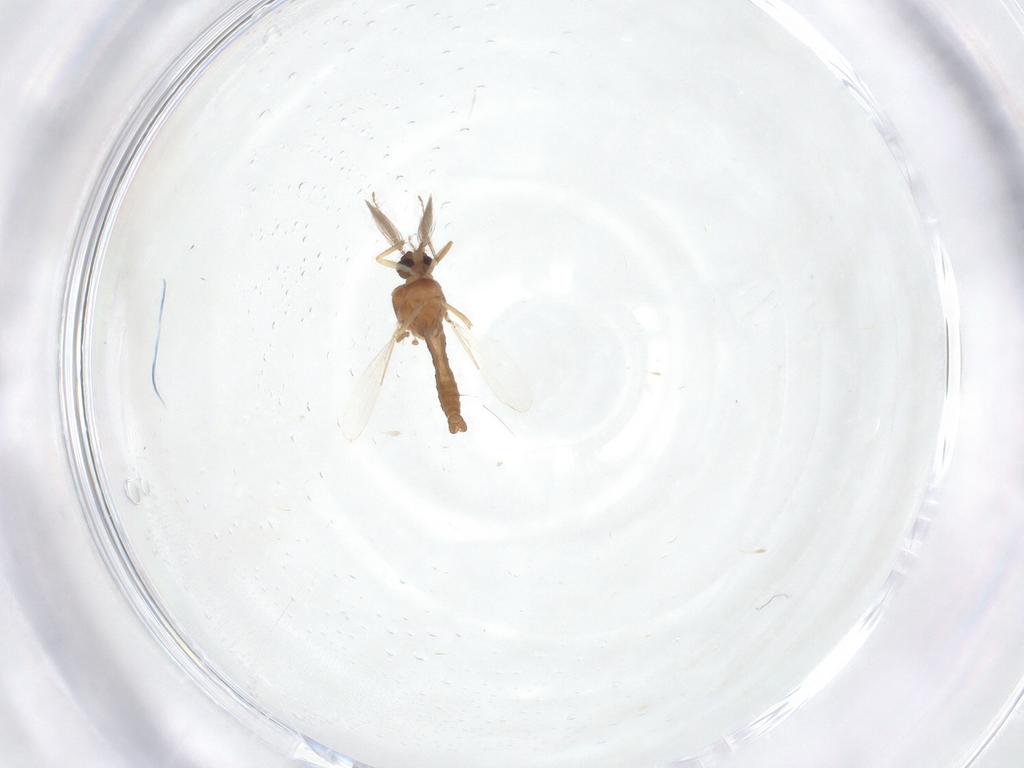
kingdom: Animalia
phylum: Arthropoda
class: Insecta
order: Diptera
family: Ceratopogonidae
